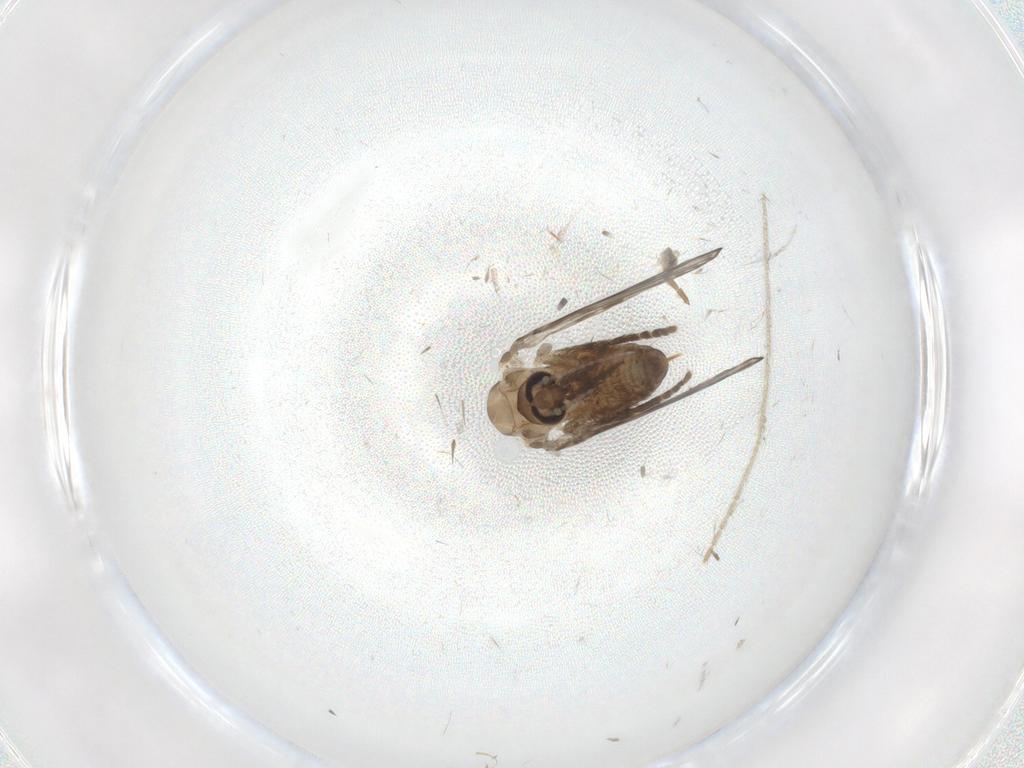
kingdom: Animalia
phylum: Arthropoda
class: Insecta
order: Diptera
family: Psychodidae
